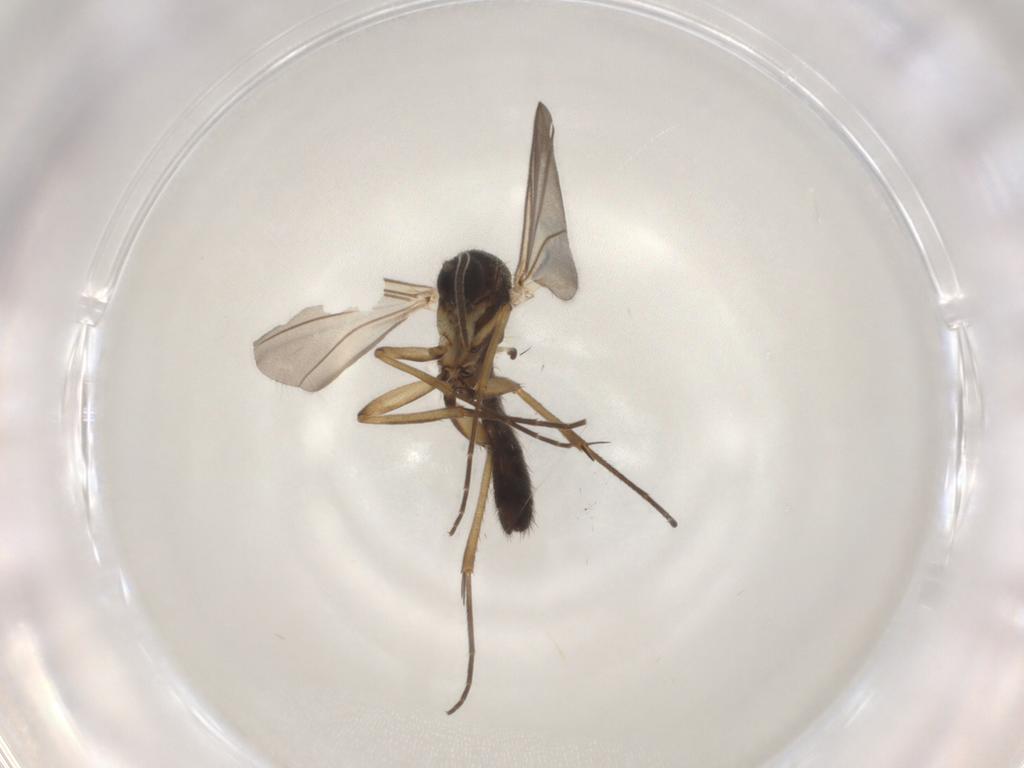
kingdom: Animalia
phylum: Arthropoda
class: Insecta
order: Diptera
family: Mycetophilidae
